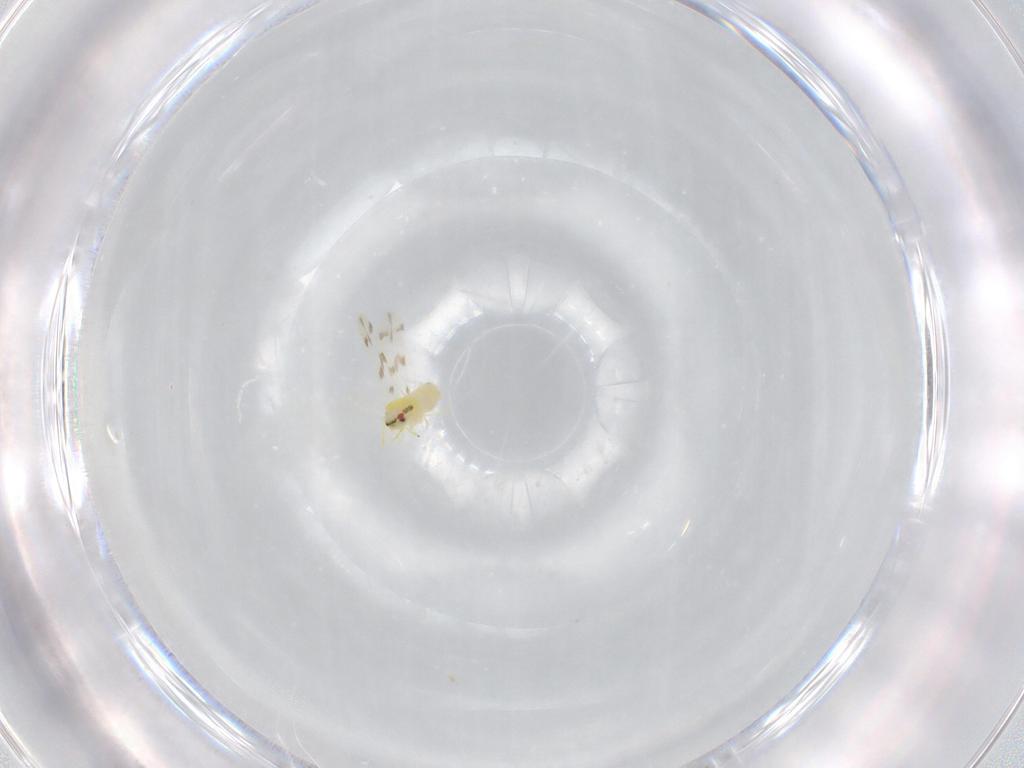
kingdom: Animalia
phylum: Arthropoda
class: Insecta
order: Hemiptera
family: Aleyrodidae
